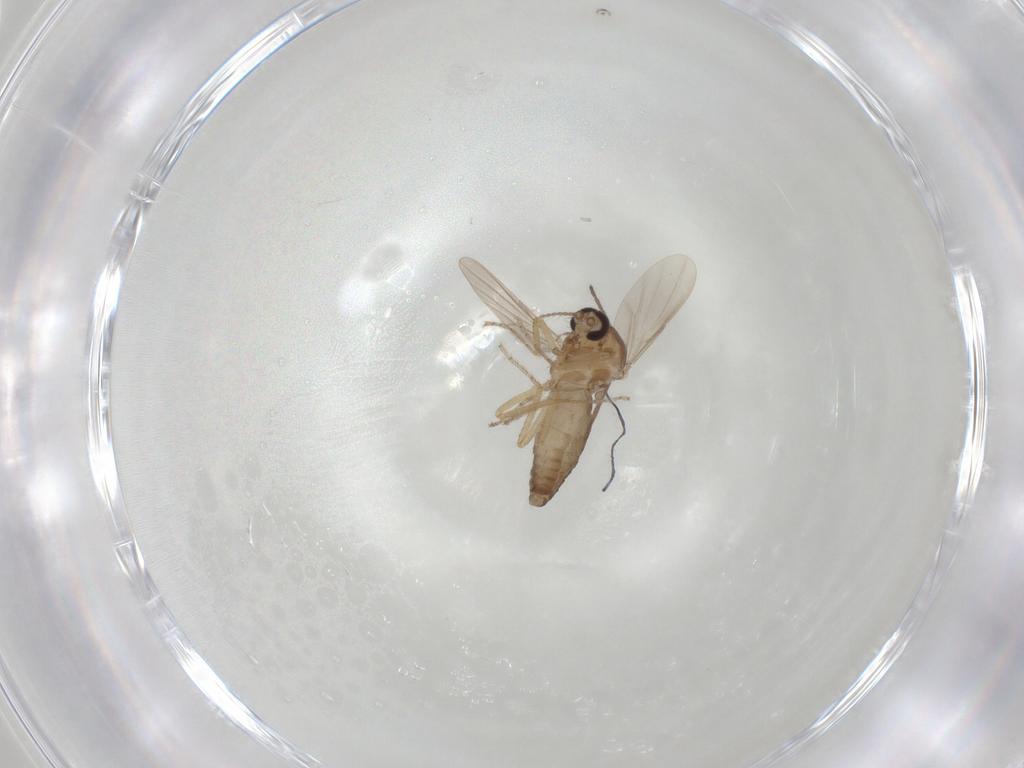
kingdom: Animalia
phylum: Arthropoda
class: Insecta
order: Diptera
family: Ceratopogonidae
